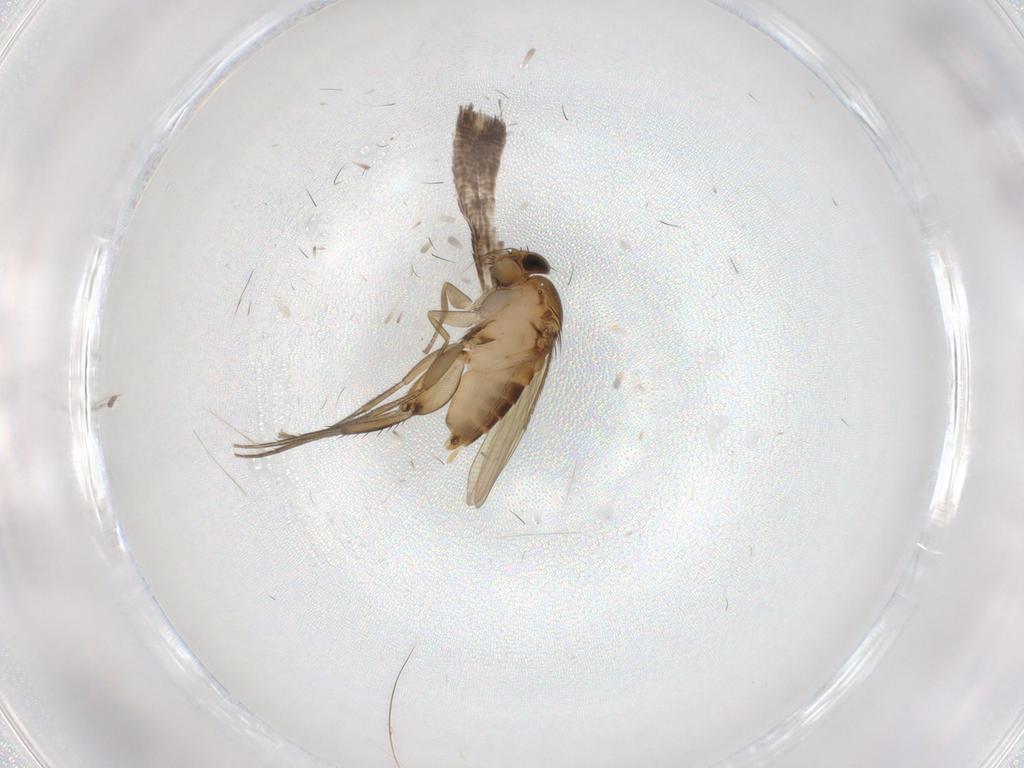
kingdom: Animalia
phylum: Arthropoda
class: Insecta
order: Diptera
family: Phoridae
